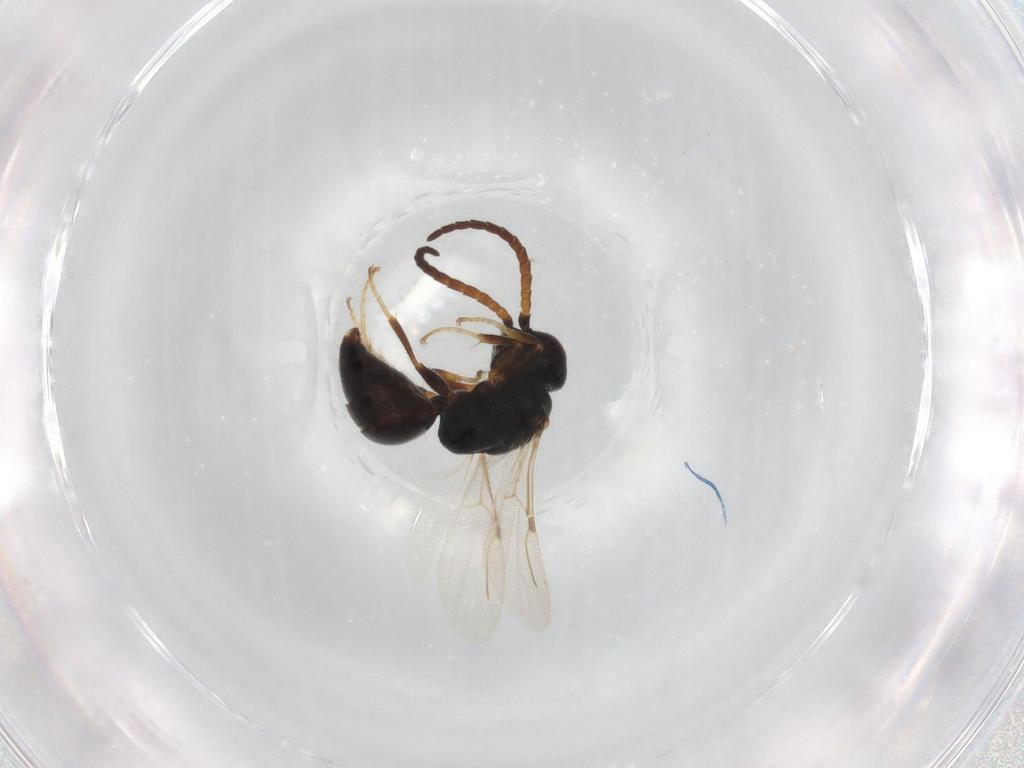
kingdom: Animalia
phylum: Arthropoda
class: Insecta
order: Hymenoptera
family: Bethylidae
